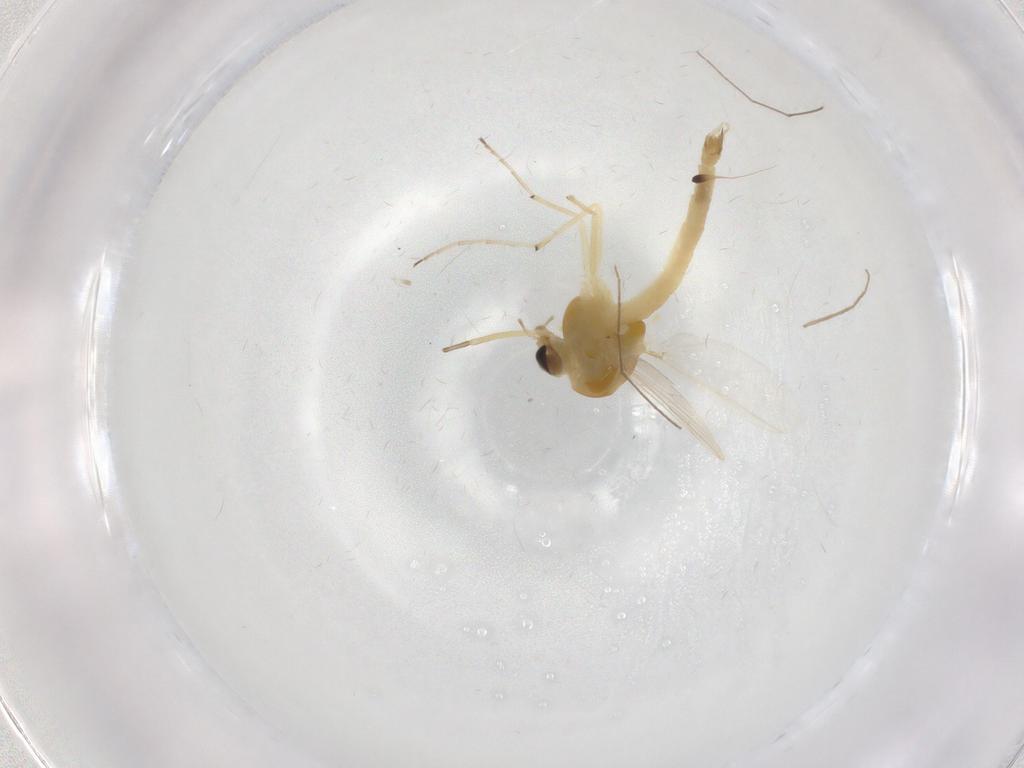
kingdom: Animalia
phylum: Arthropoda
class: Insecta
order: Diptera
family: Chironomidae
